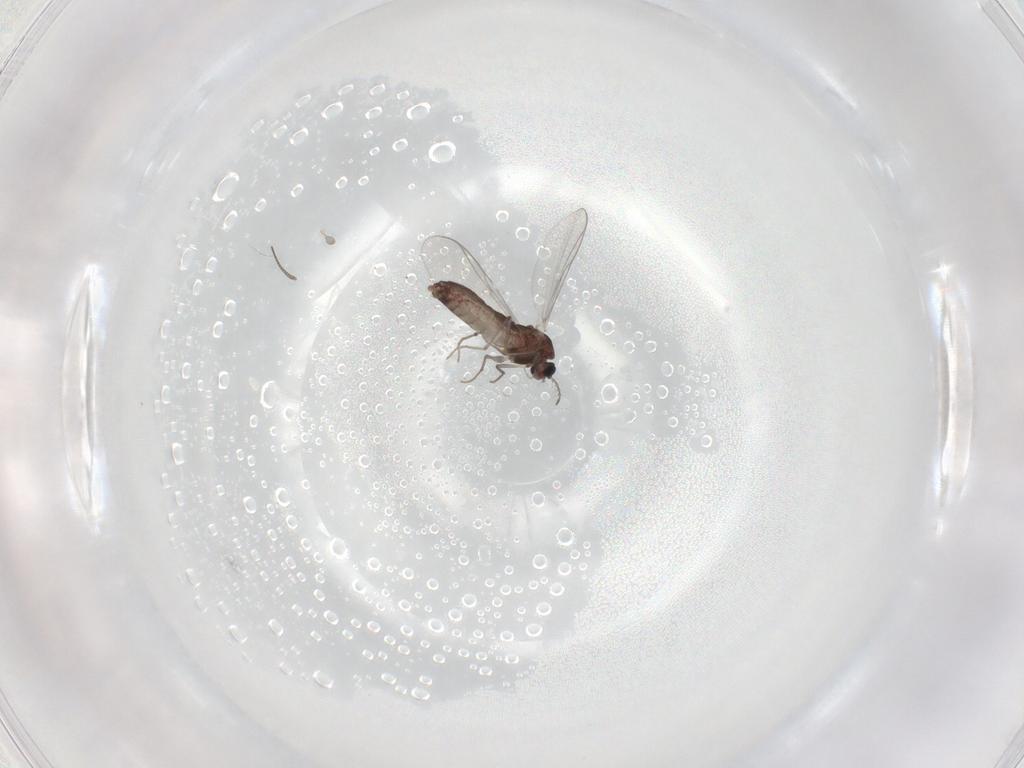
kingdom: Animalia
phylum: Arthropoda
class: Insecta
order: Diptera
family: Chironomidae
